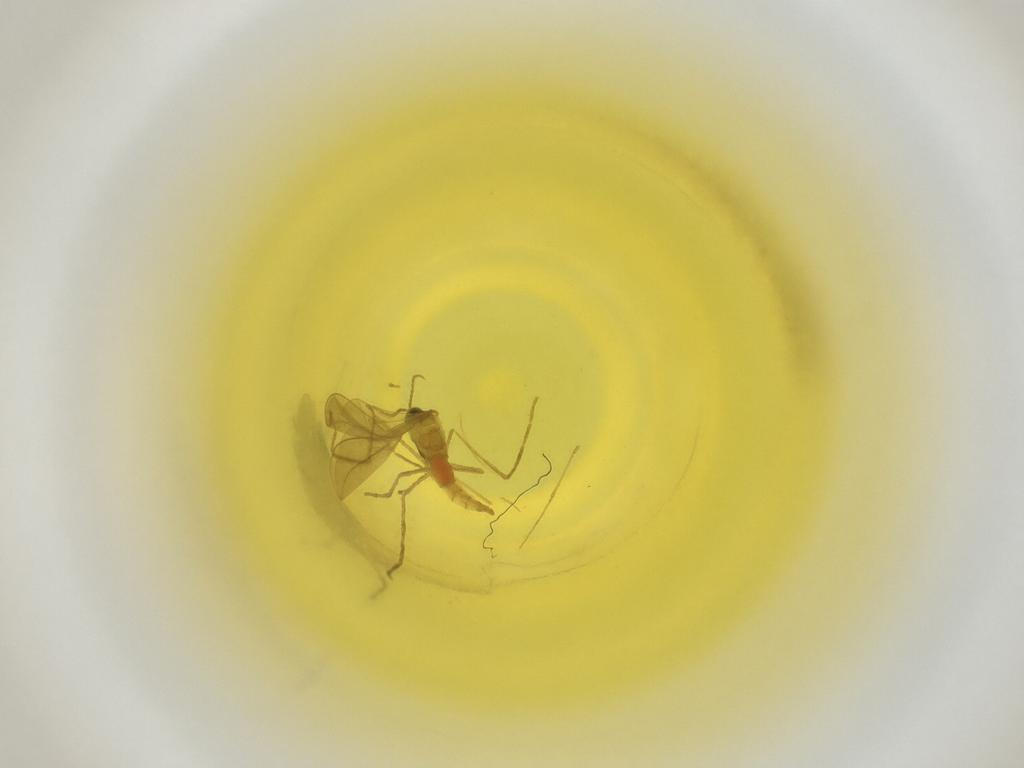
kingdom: Animalia
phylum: Arthropoda
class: Insecta
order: Diptera
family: Cecidomyiidae
